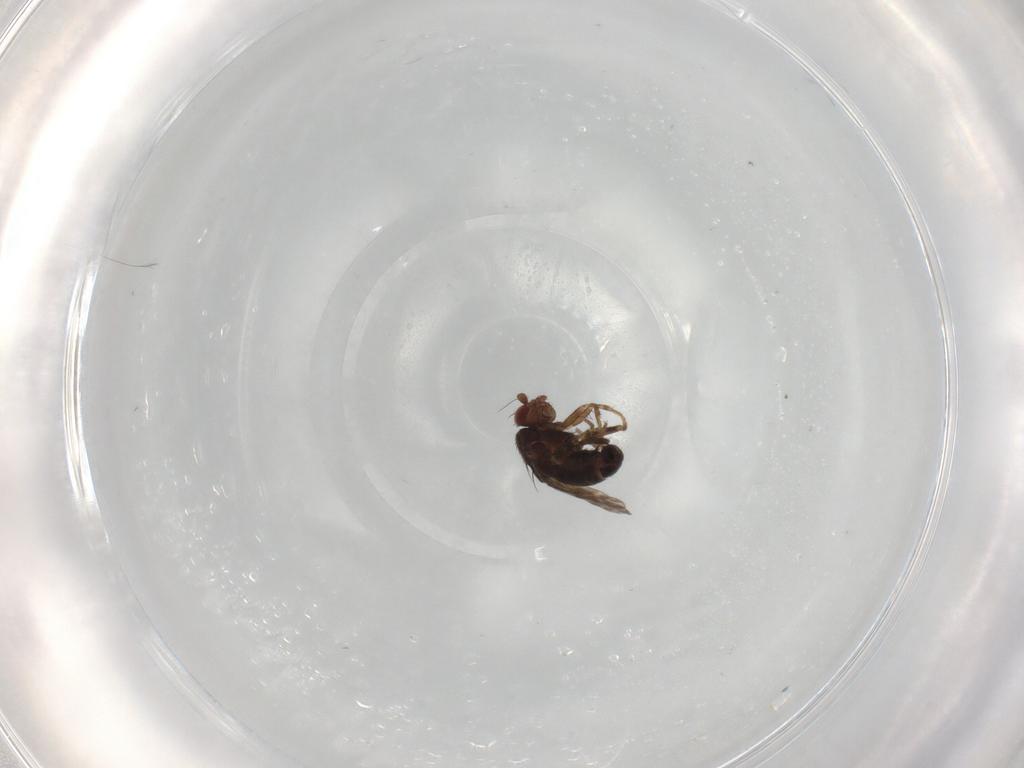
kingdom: Animalia
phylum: Arthropoda
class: Insecta
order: Diptera
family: Sphaeroceridae
